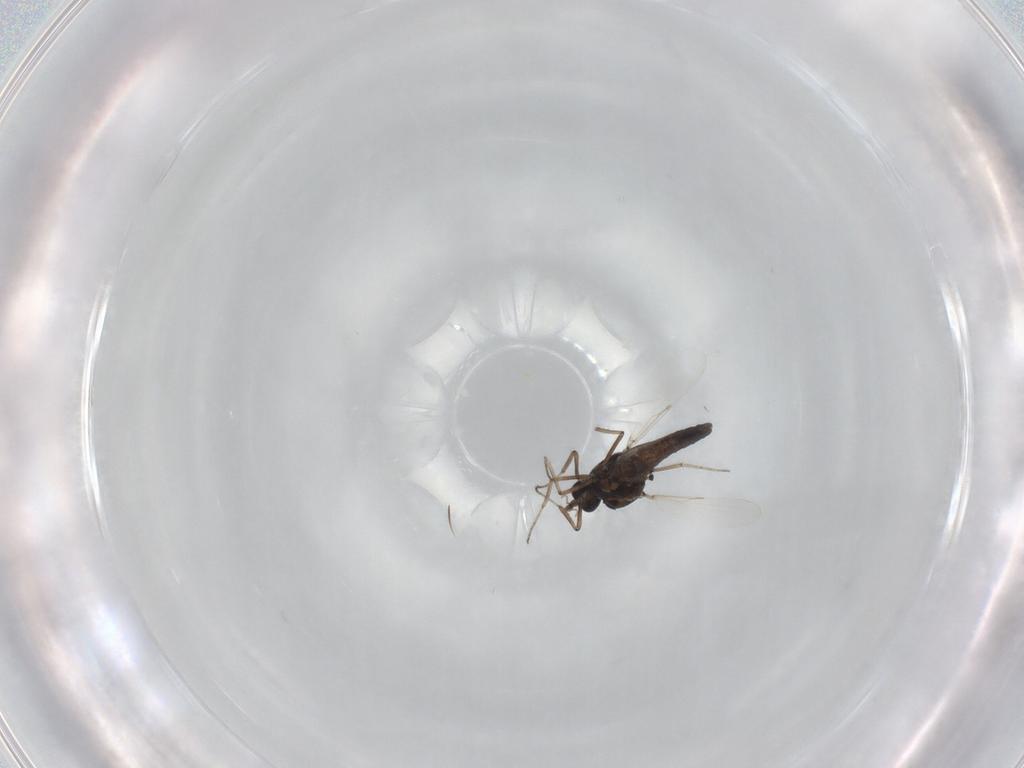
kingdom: Animalia
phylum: Arthropoda
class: Insecta
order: Diptera
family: Ceratopogonidae
